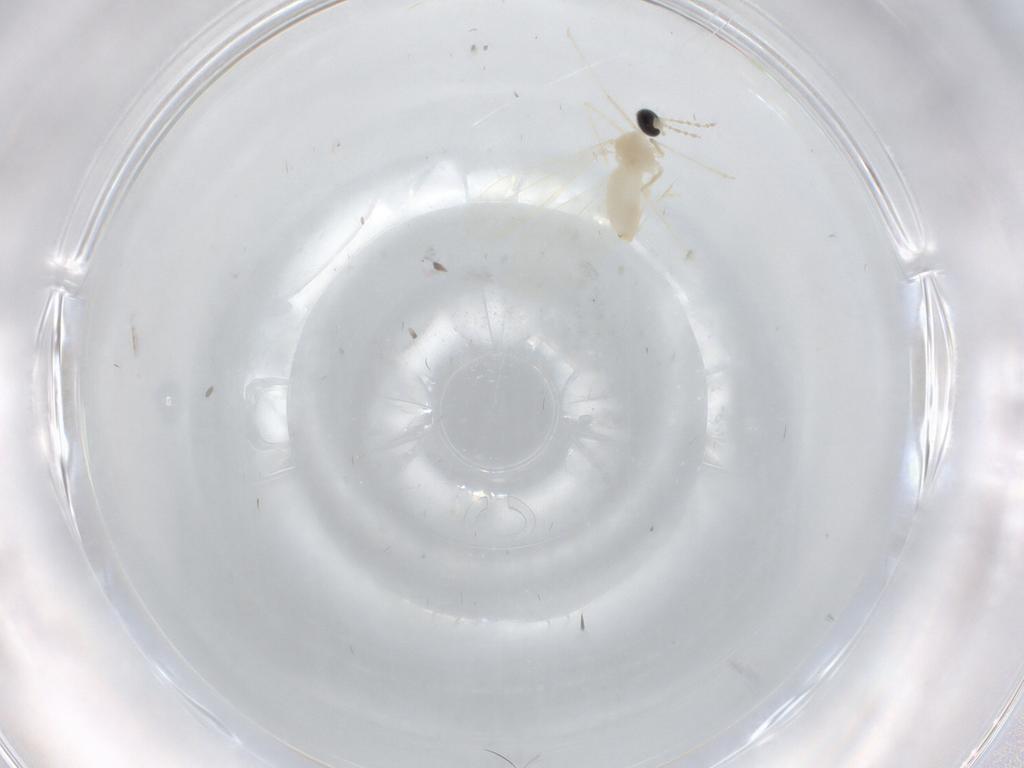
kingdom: Animalia
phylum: Arthropoda
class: Insecta
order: Diptera
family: Cecidomyiidae
